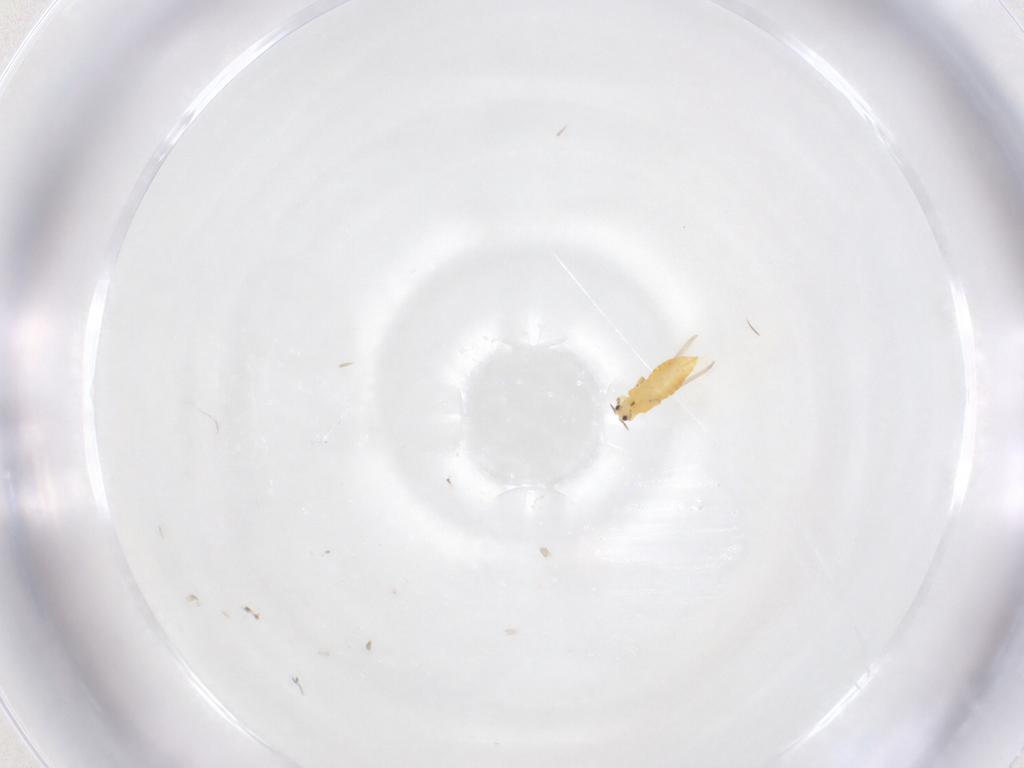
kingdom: Animalia
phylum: Arthropoda
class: Insecta
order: Thysanoptera
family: Thripidae
